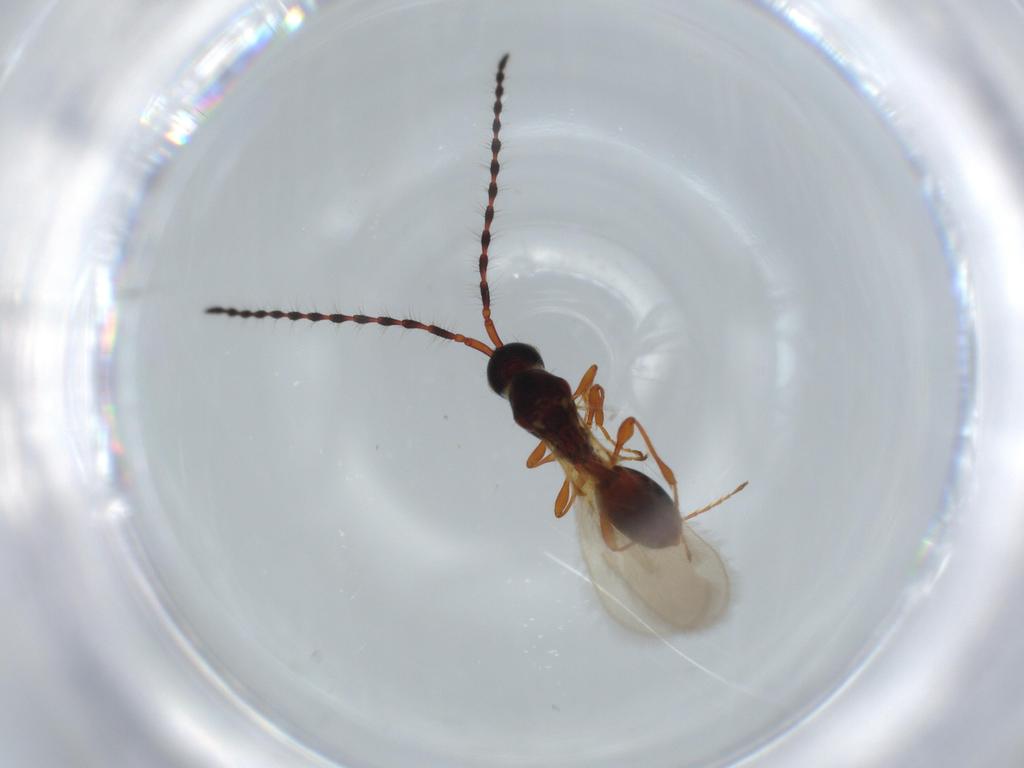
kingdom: Animalia
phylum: Arthropoda
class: Insecta
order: Hymenoptera
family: Diapriidae
